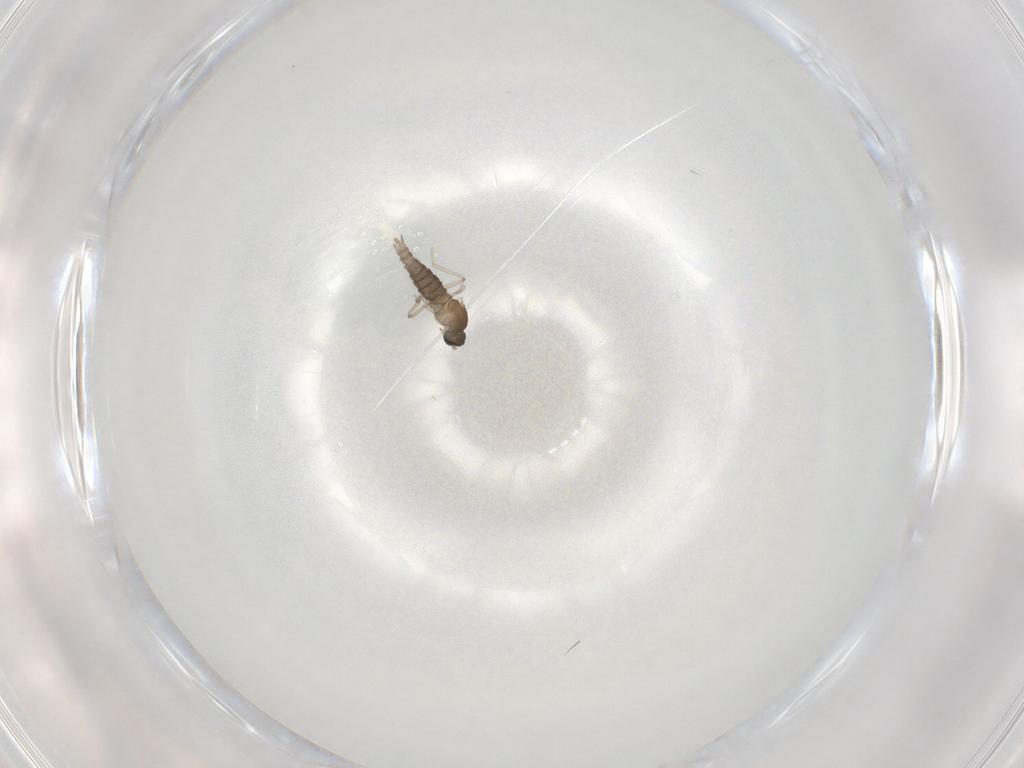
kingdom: Animalia
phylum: Arthropoda
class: Insecta
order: Diptera
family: Cecidomyiidae
